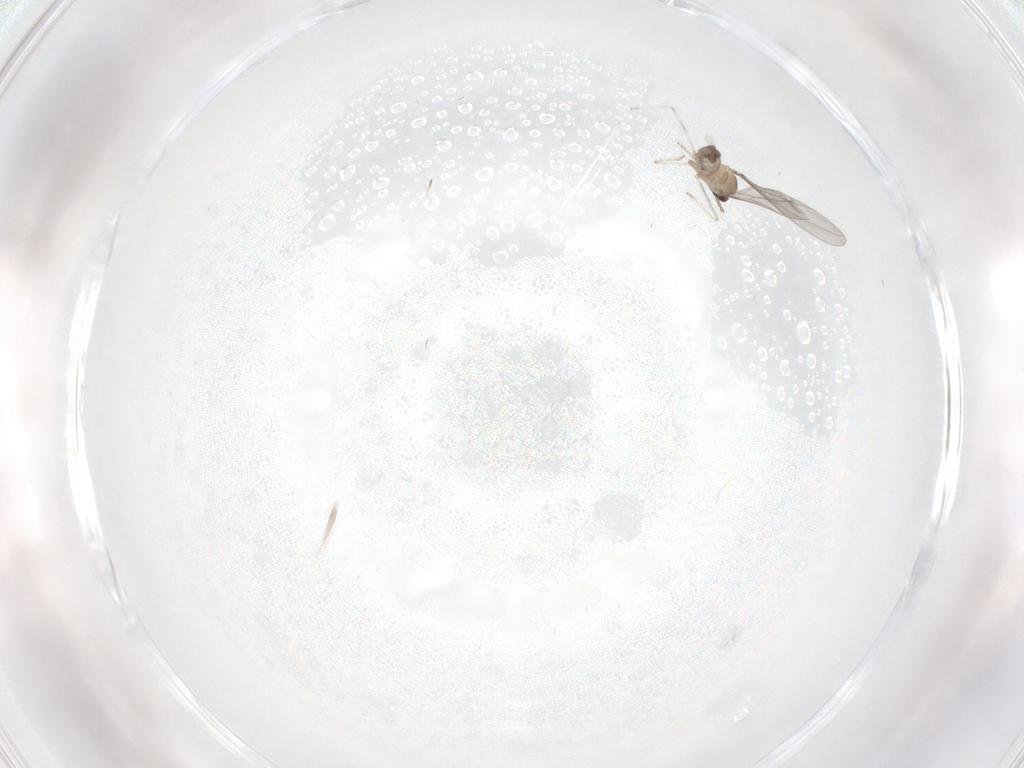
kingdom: Animalia
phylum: Arthropoda
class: Insecta
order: Diptera
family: Cecidomyiidae
